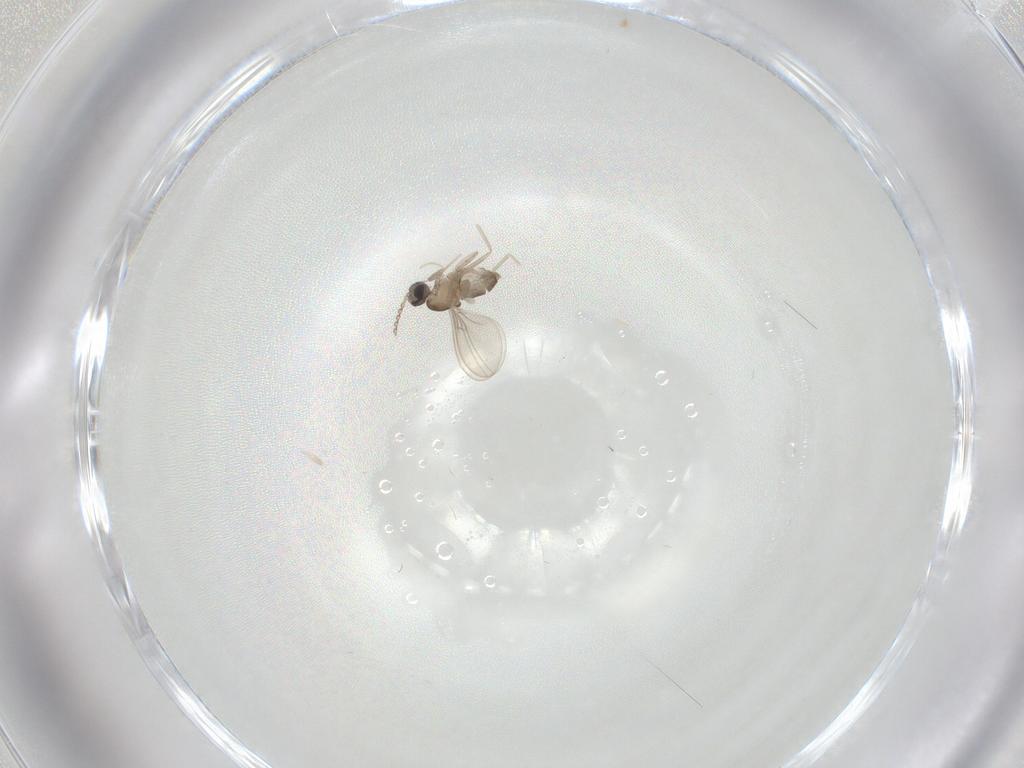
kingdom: Animalia
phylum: Arthropoda
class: Insecta
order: Diptera
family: Cecidomyiidae
